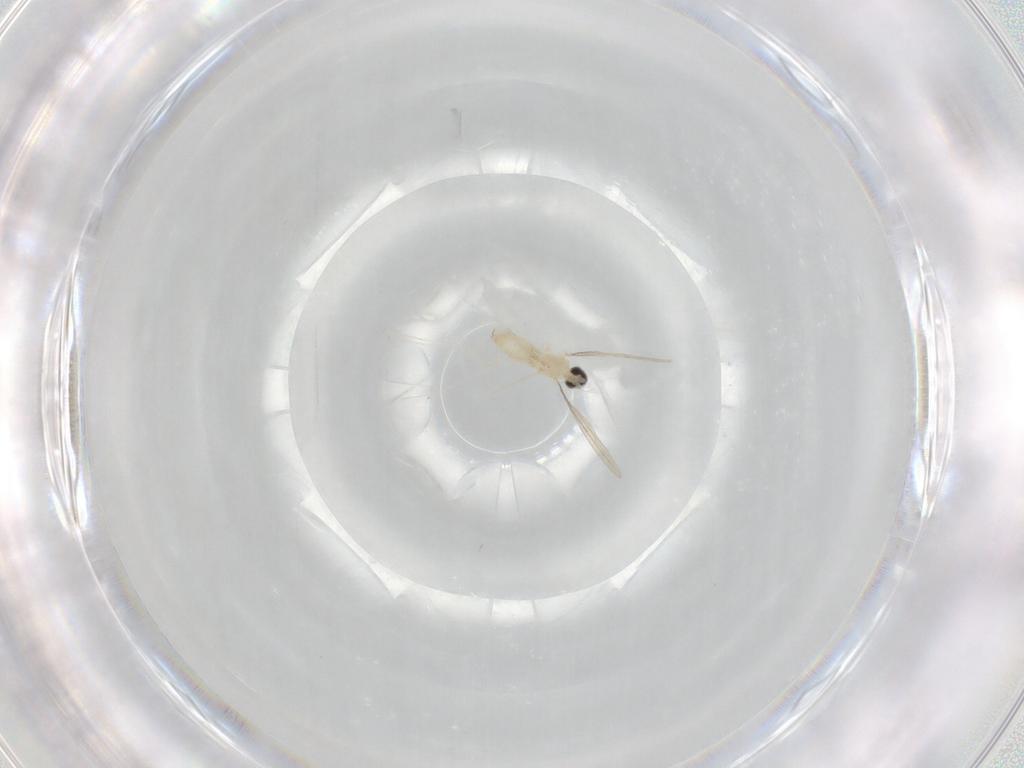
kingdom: Animalia
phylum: Arthropoda
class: Insecta
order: Diptera
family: Cecidomyiidae
